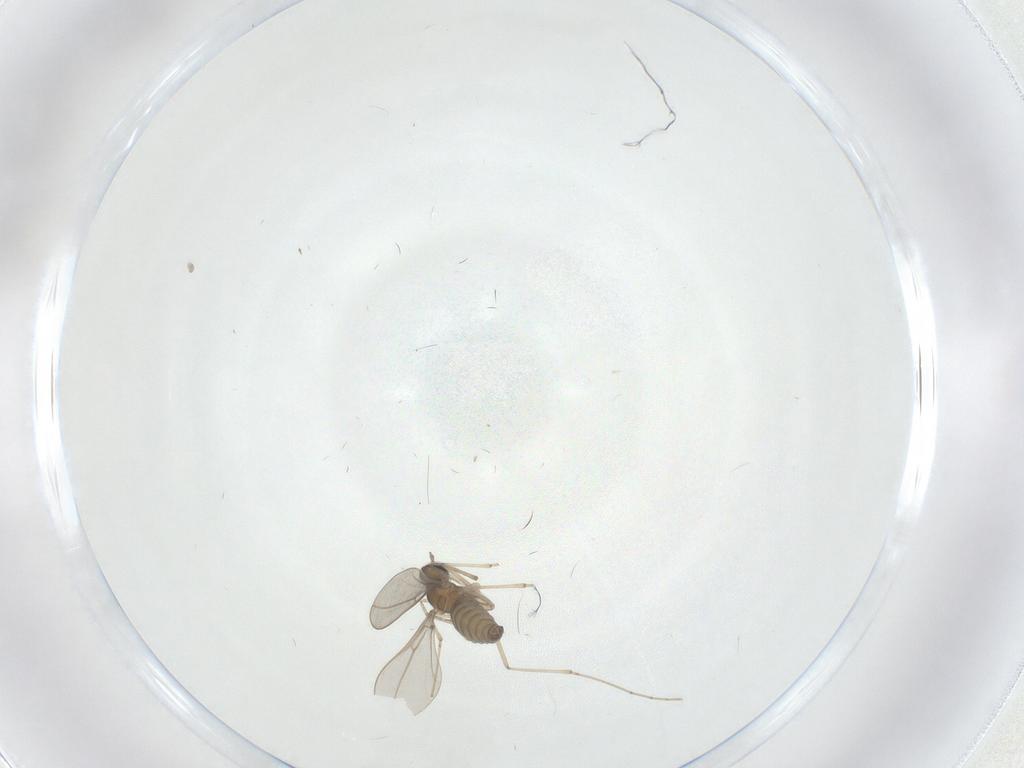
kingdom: Animalia
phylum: Arthropoda
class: Insecta
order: Diptera
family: Cecidomyiidae
